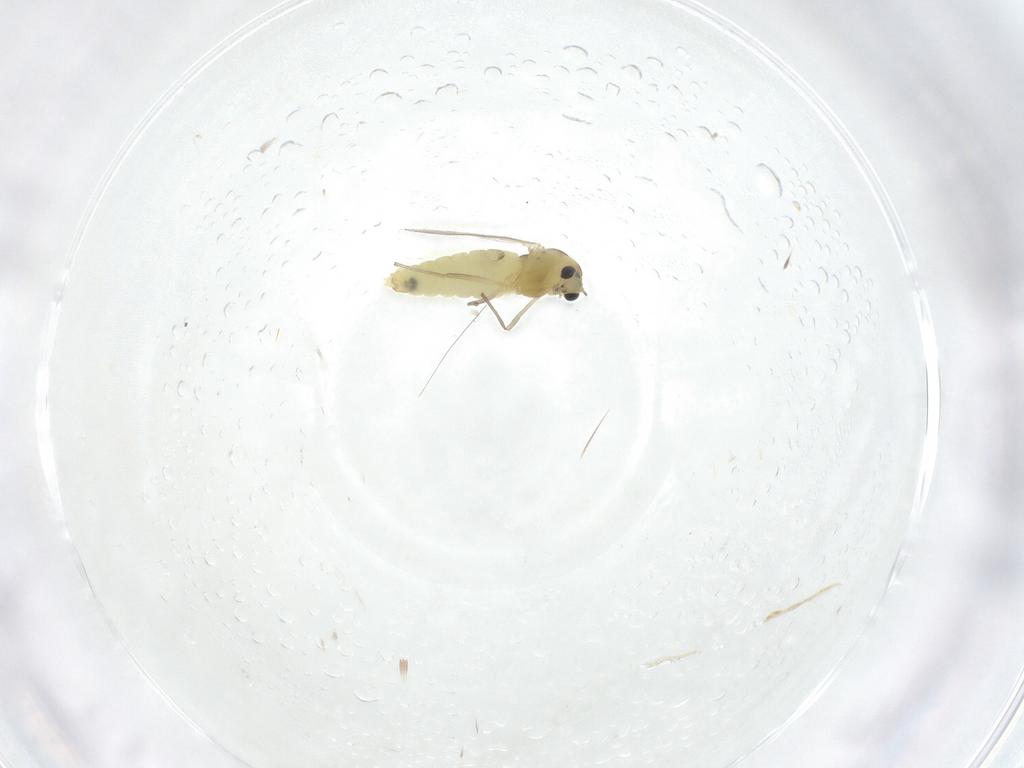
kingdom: Animalia
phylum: Arthropoda
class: Insecta
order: Diptera
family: Chironomidae
